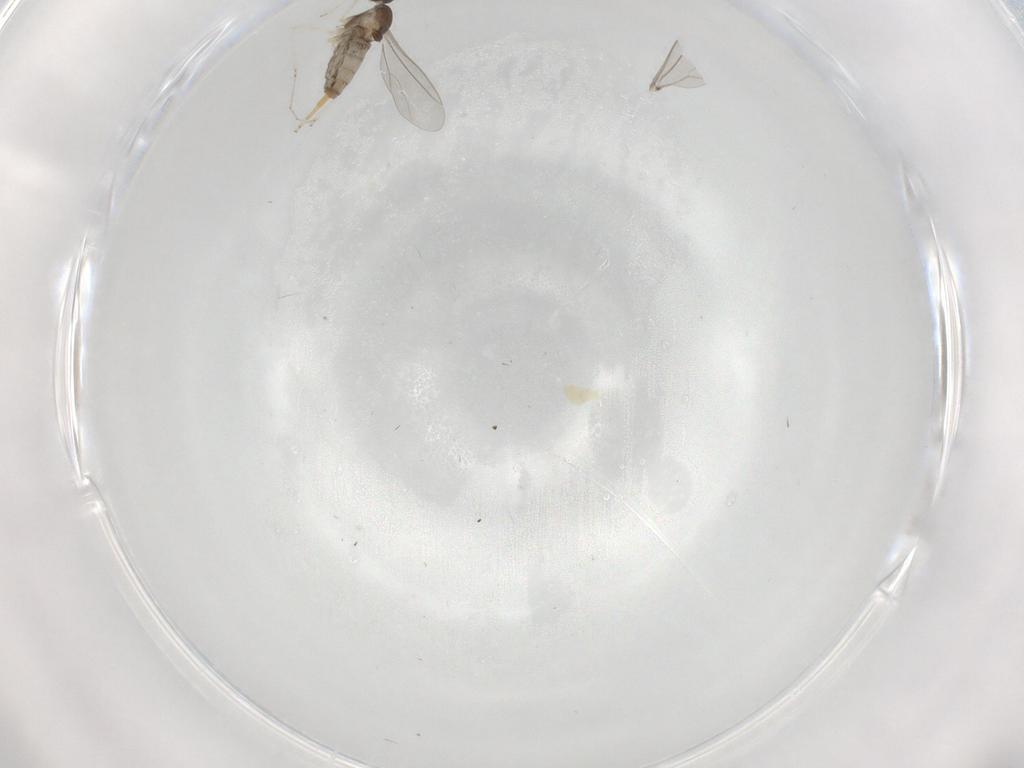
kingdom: Animalia
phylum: Arthropoda
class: Insecta
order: Diptera
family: Cecidomyiidae
